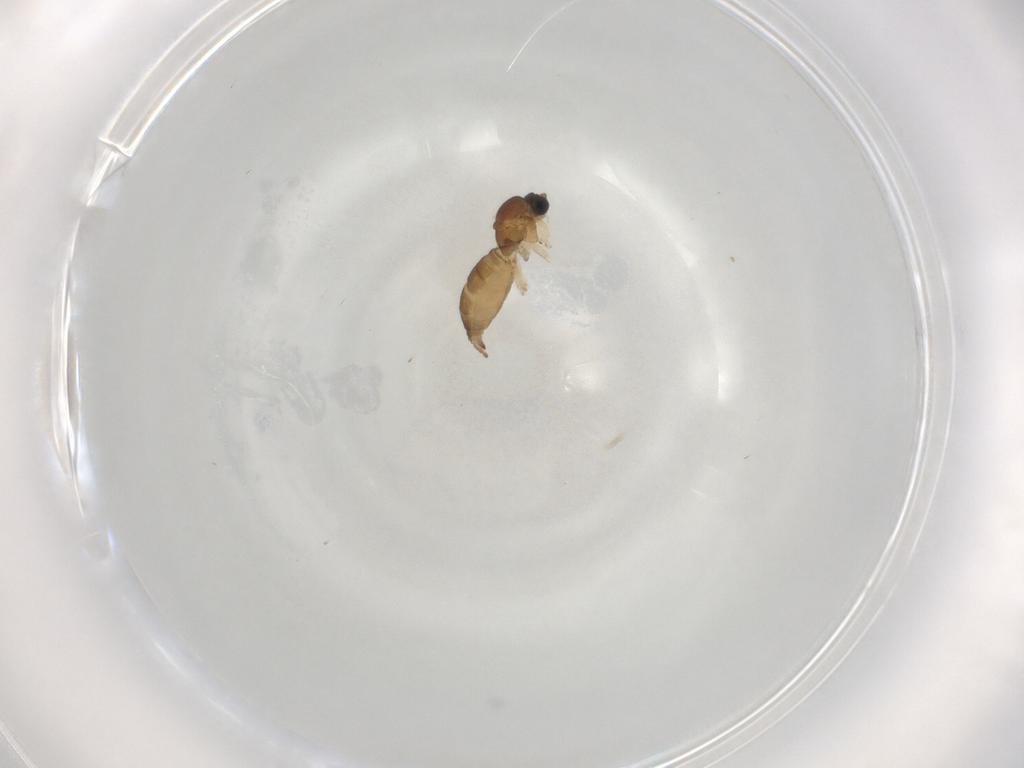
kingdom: Animalia
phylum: Arthropoda
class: Insecta
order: Diptera
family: Sciaridae
